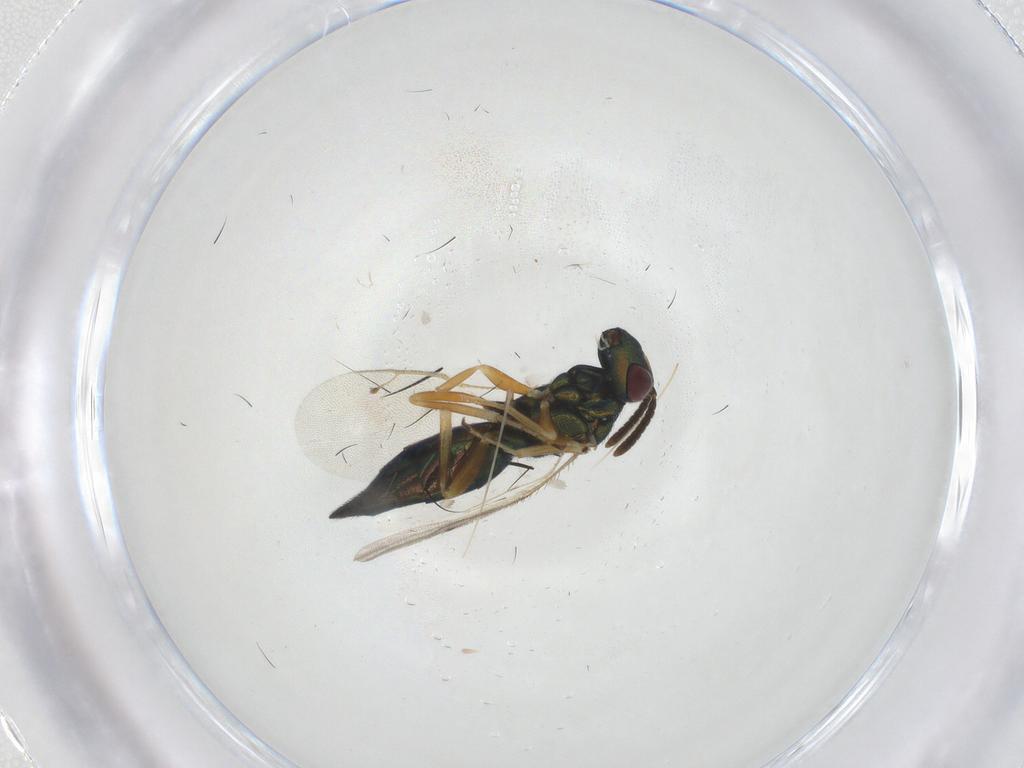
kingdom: Animalia
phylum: Arthropoda
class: Insecta
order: Hymenoptera
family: Pteromalidae
